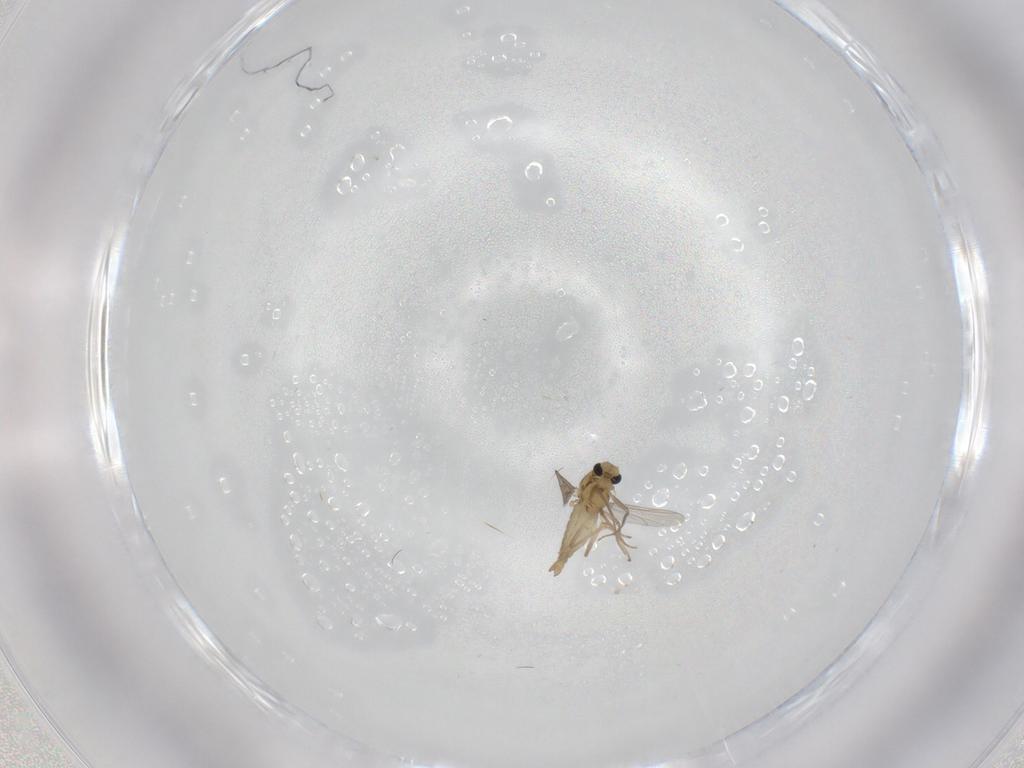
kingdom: Animalia
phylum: Arthropoda
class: Insecta
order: Diptera
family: Chironomidae
